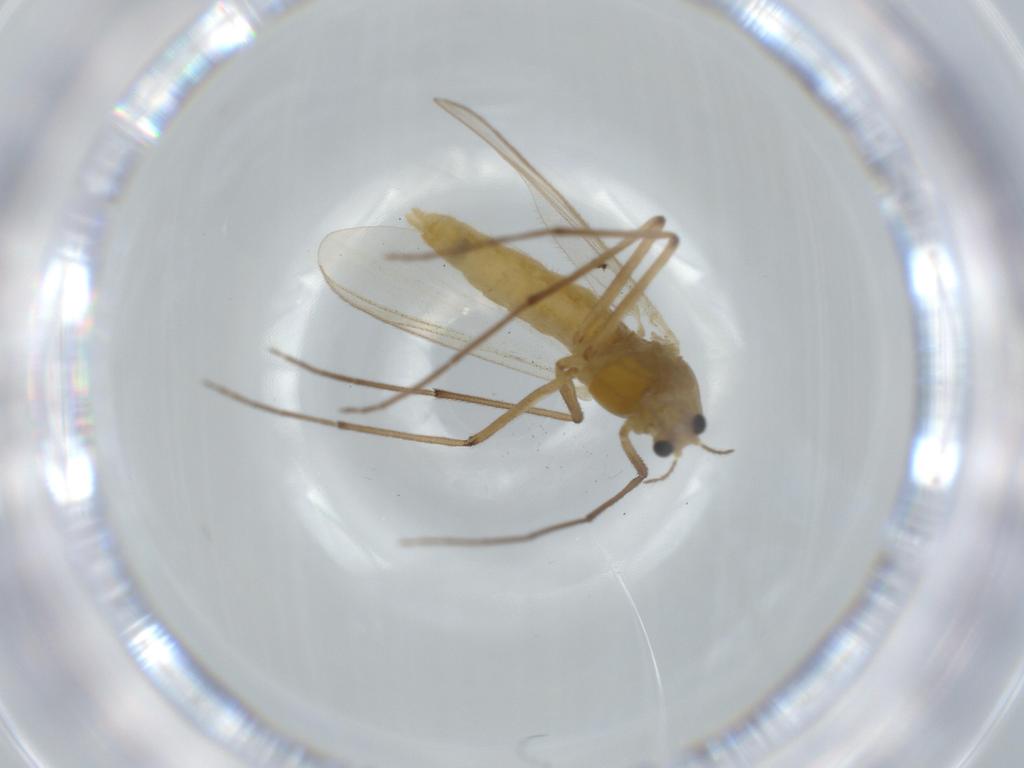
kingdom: Animalia
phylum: Arthropoda
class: Insecta
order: Diptera
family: Chironomidae
